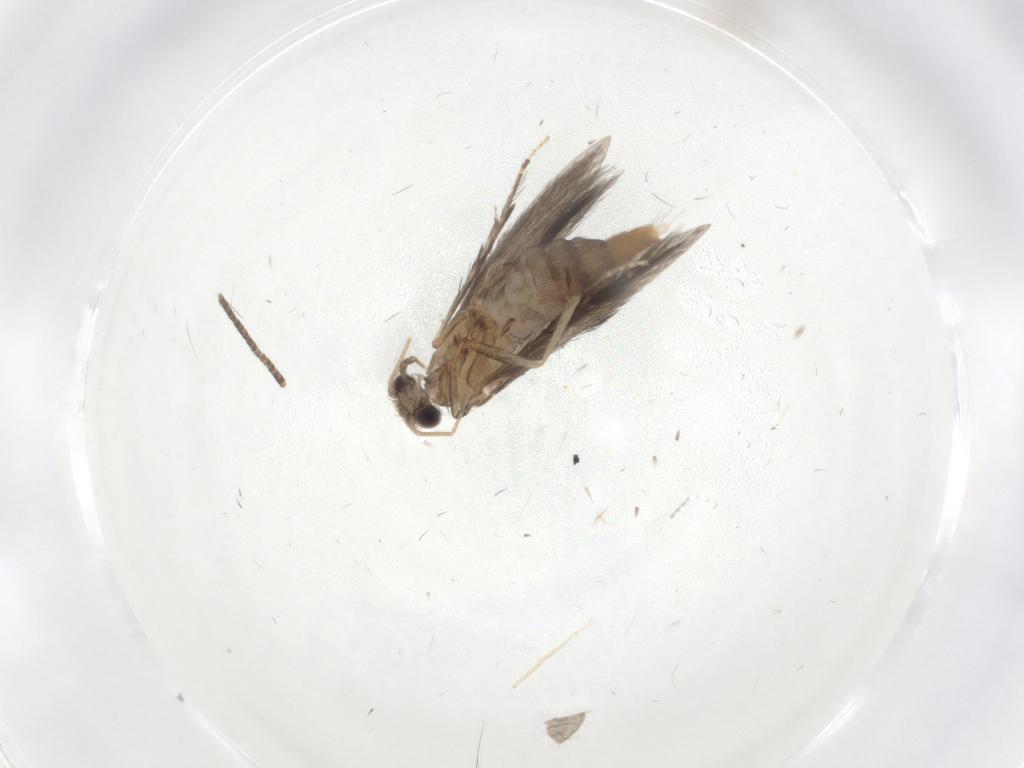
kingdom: Animalia
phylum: Arthropoda
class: Insecta
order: Trichoptera
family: Hydroptilidae
